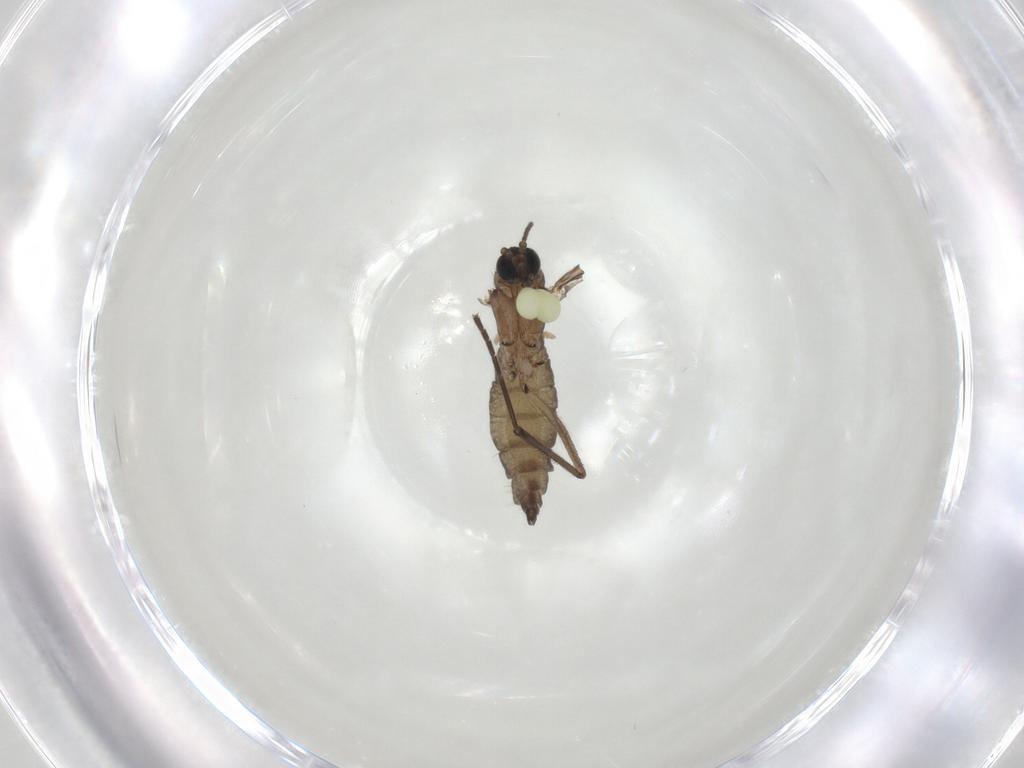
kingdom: Animalia
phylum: Arthropoda
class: Insecta
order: Diptera
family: Sciaridae
